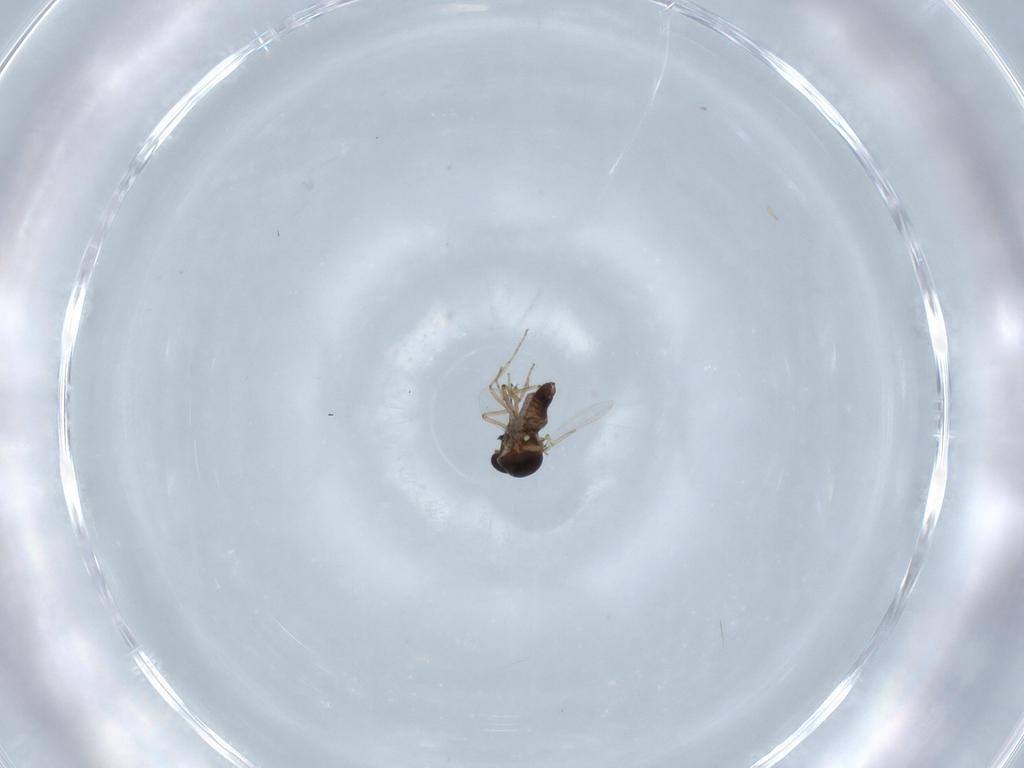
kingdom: Animalia
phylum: Arthropoda
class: Insecta
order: Diptera
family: Ceratopogonidae
